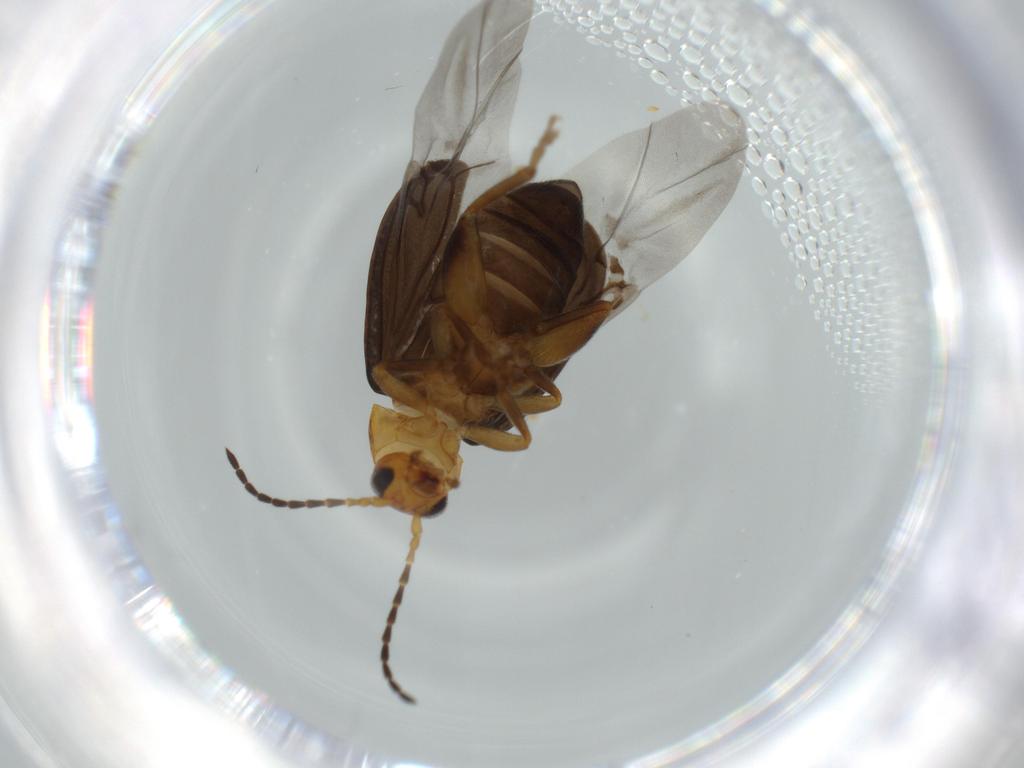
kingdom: Animalia
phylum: Arthropoda
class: Insecta
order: Coleoptera
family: Chrysomelidae
